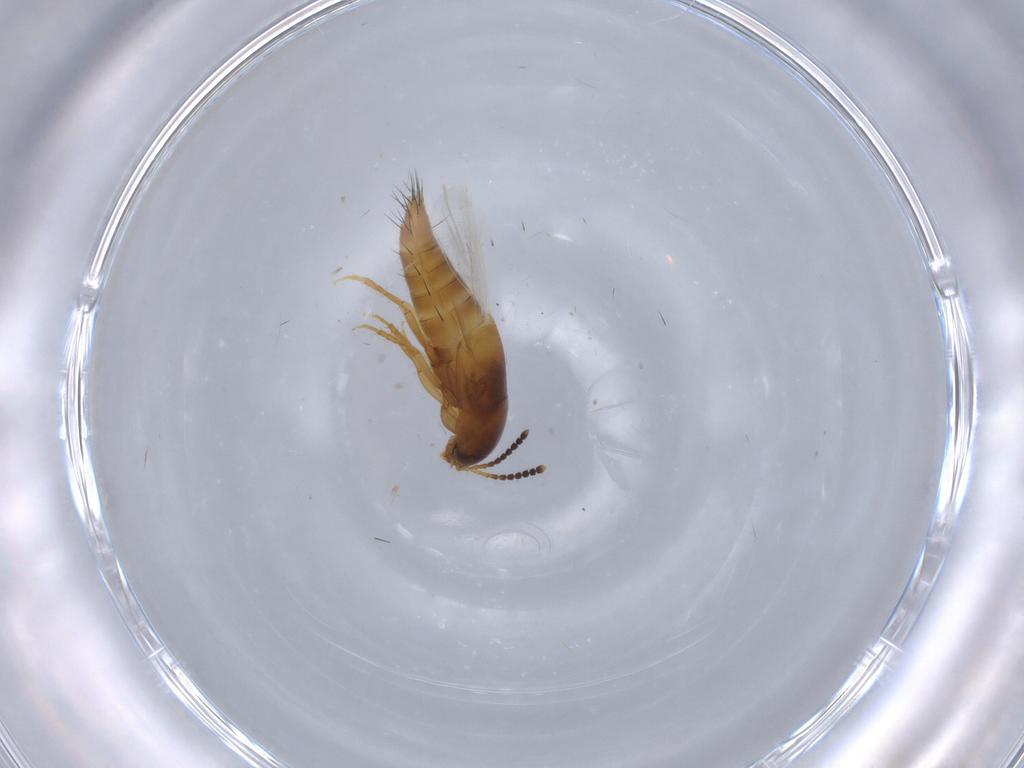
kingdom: Animalia
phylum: Arthropoda
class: Insecta
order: Coleoptera
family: Staphylinidae
